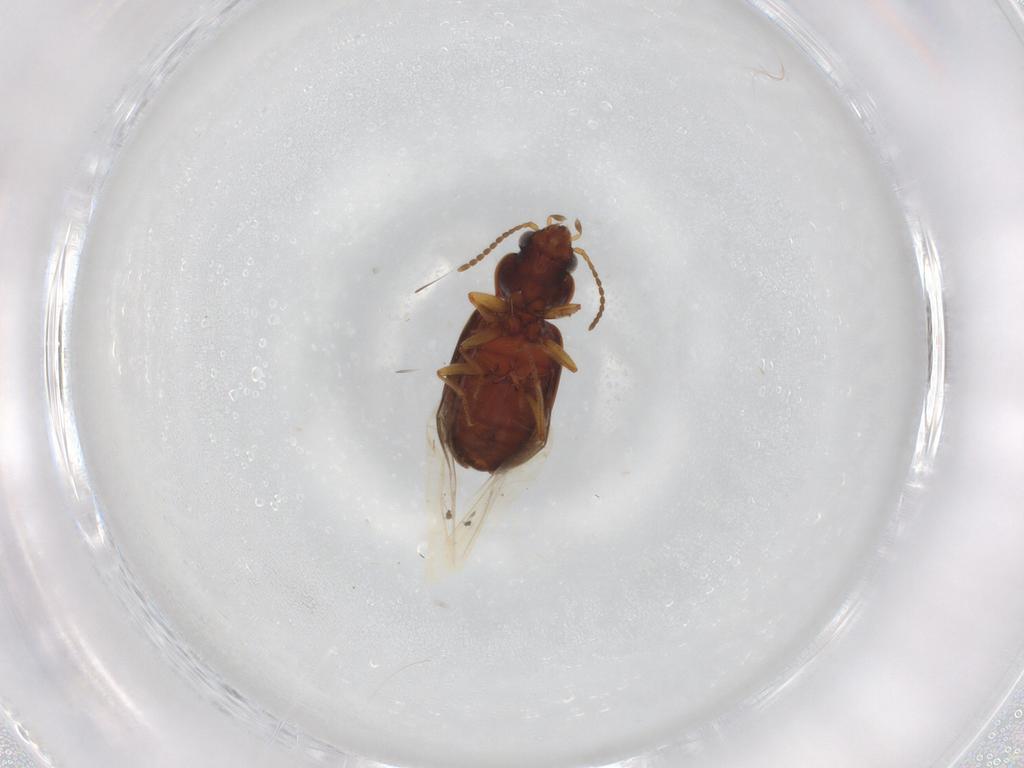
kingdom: Animalia
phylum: Arthropoda
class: Insecta
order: Coleoptera
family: Carabidae
